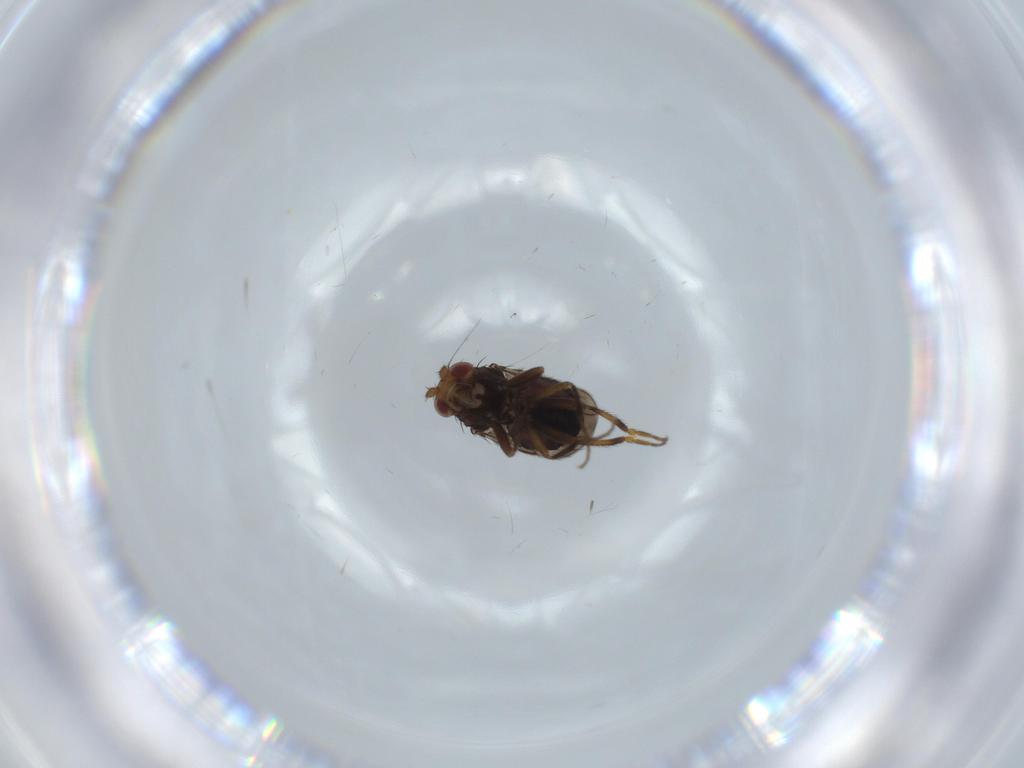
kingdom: Animalia
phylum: Arthropoda
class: Insecta
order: Diptera
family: Sphaeroceridae
